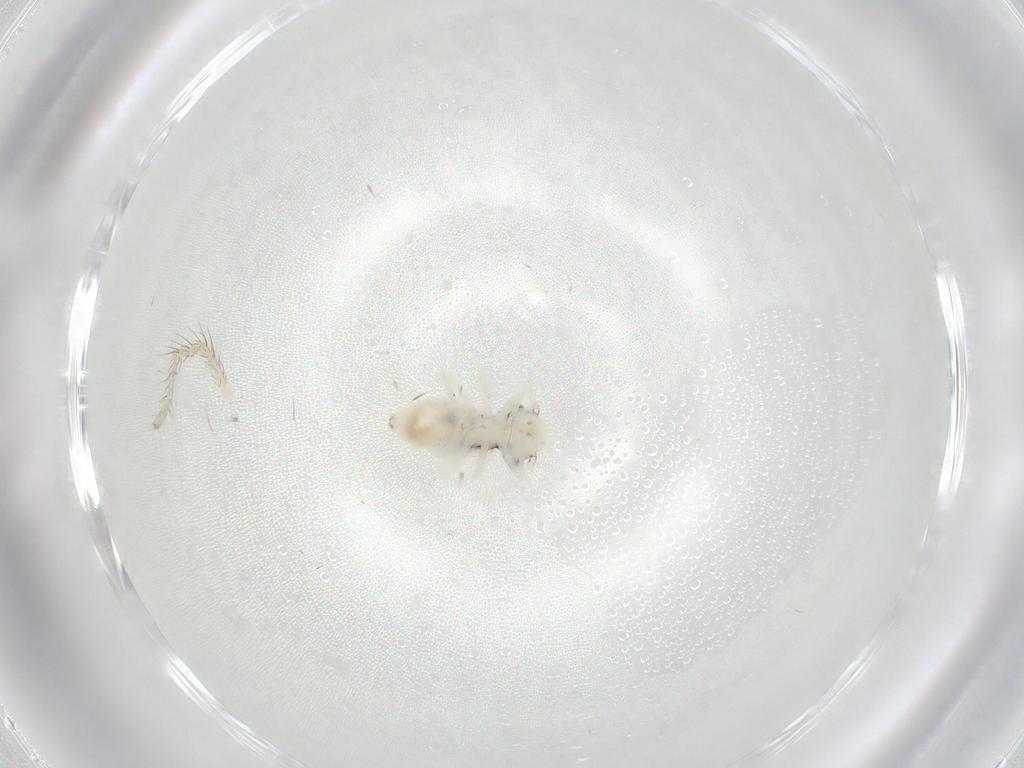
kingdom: Animalia
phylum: Arthropoda
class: Insecta
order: Psocodea
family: Philotarsidae
